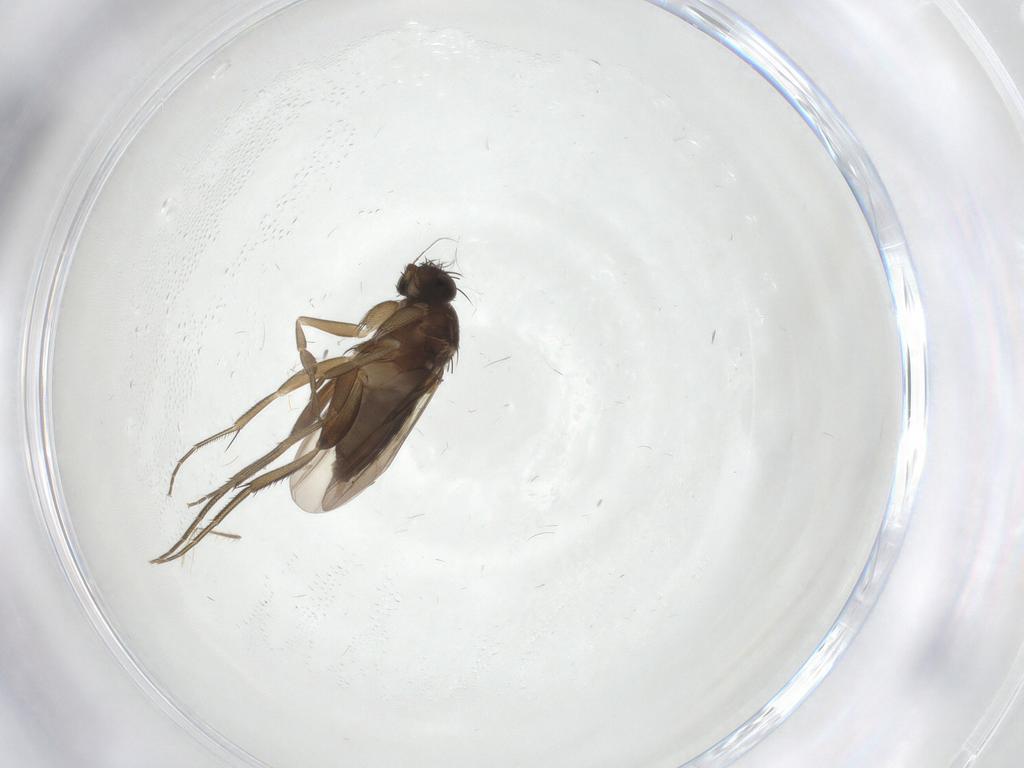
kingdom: Animalia
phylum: Arthropoda
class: Insecta
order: Diptera
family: Phoridae
